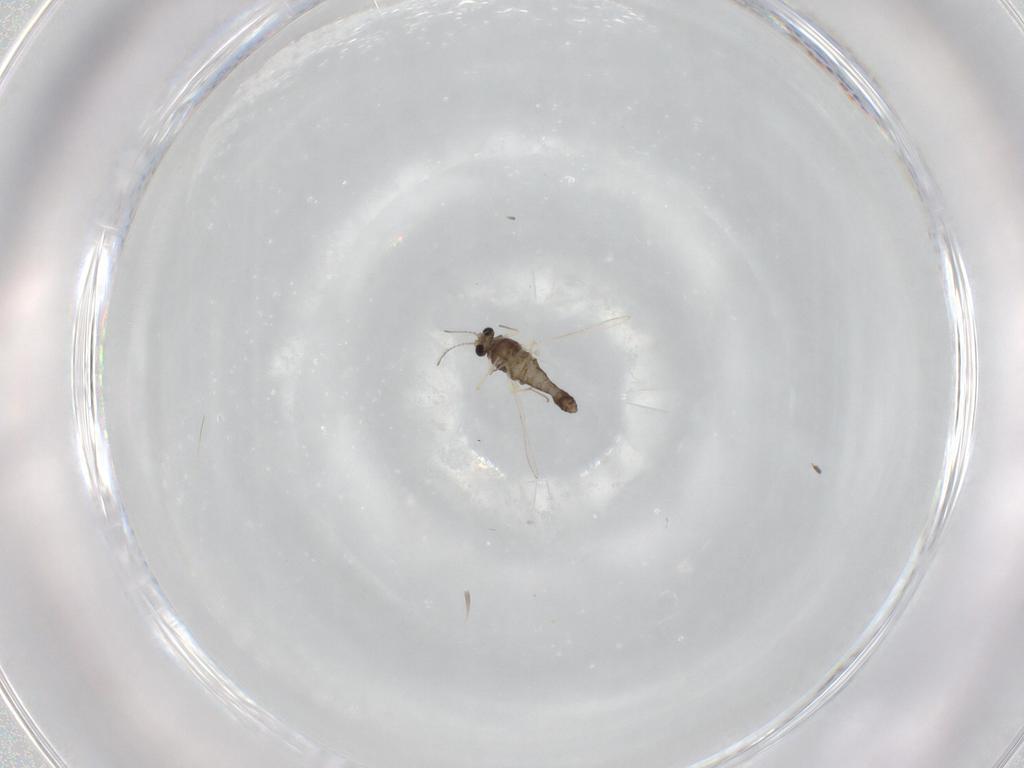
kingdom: Animalia
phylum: Arthropoda
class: Insecta
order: Diptera
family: Chironomidae
